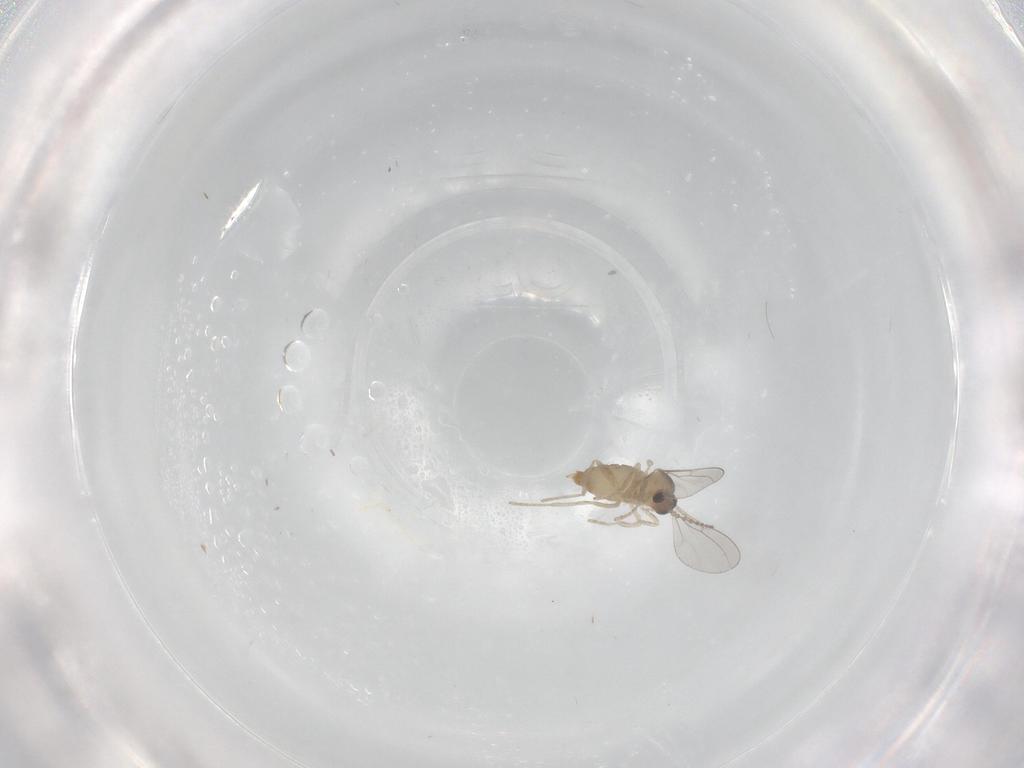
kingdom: Animalia
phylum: Arthropoda
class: Insecta
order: Diptera
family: Cecidomyiidae
